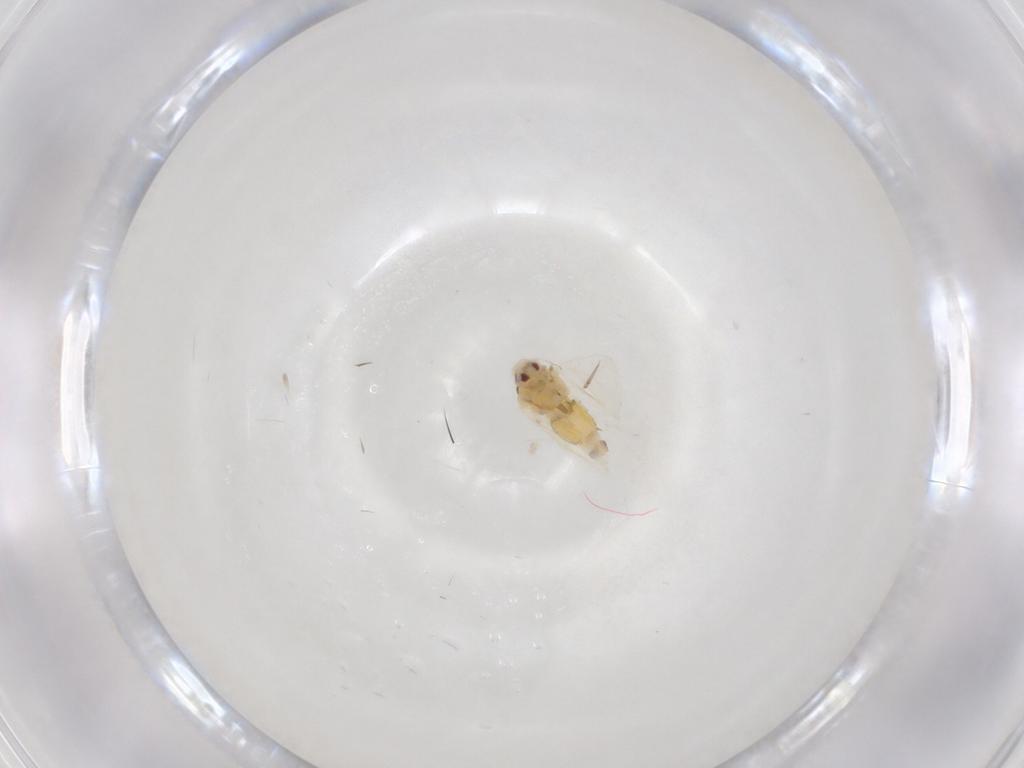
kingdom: Animalia
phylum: Arthropoda
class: Insecta
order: Hemiptera
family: Aleyrodidae
